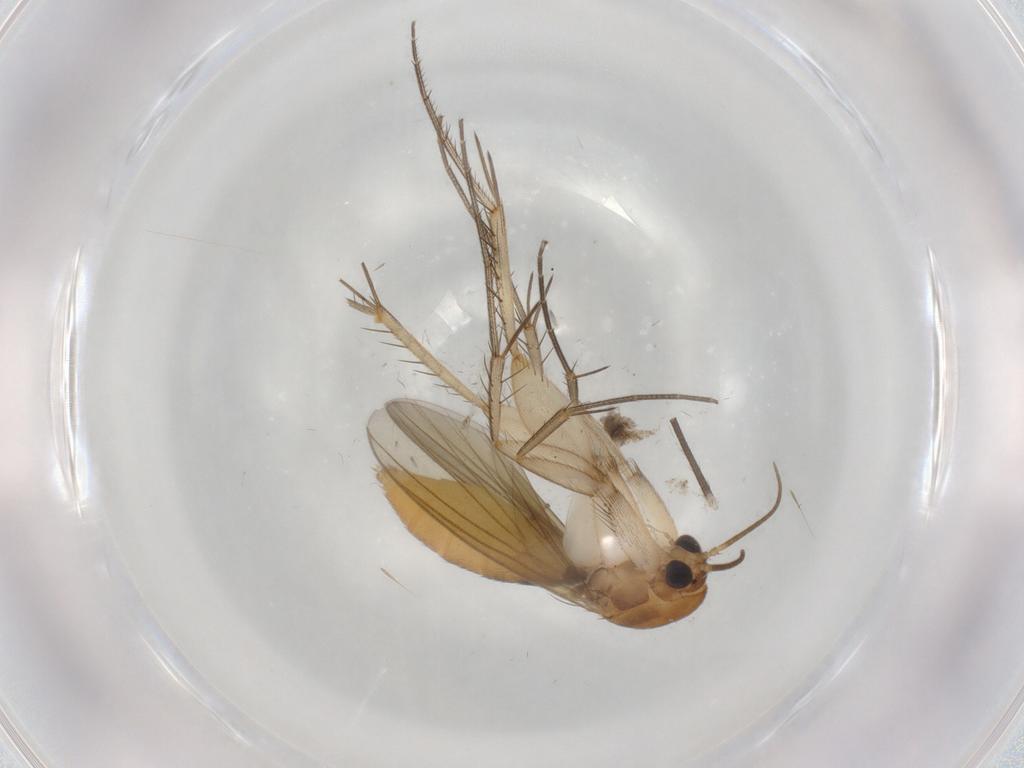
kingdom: Animalia
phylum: Arthropoda
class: Insecta
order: Diptera
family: Mycetophilidae
